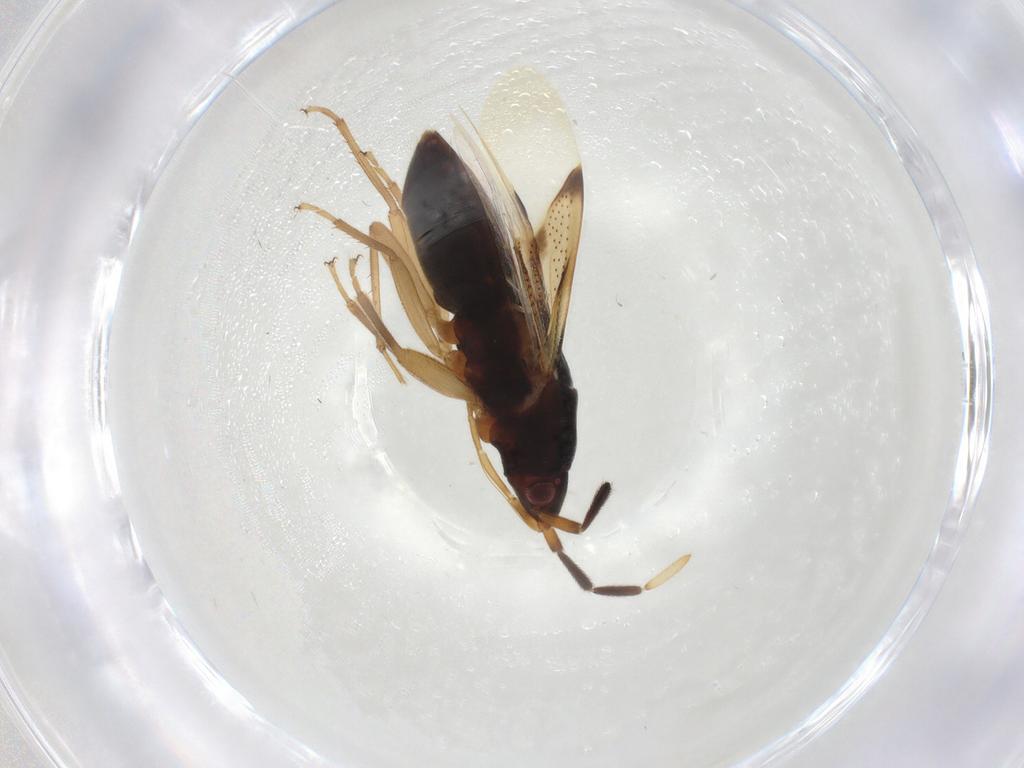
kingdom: Animalia
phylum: Arthropoda
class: Insecta
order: Hemiptera
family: Rhyparochromidae
